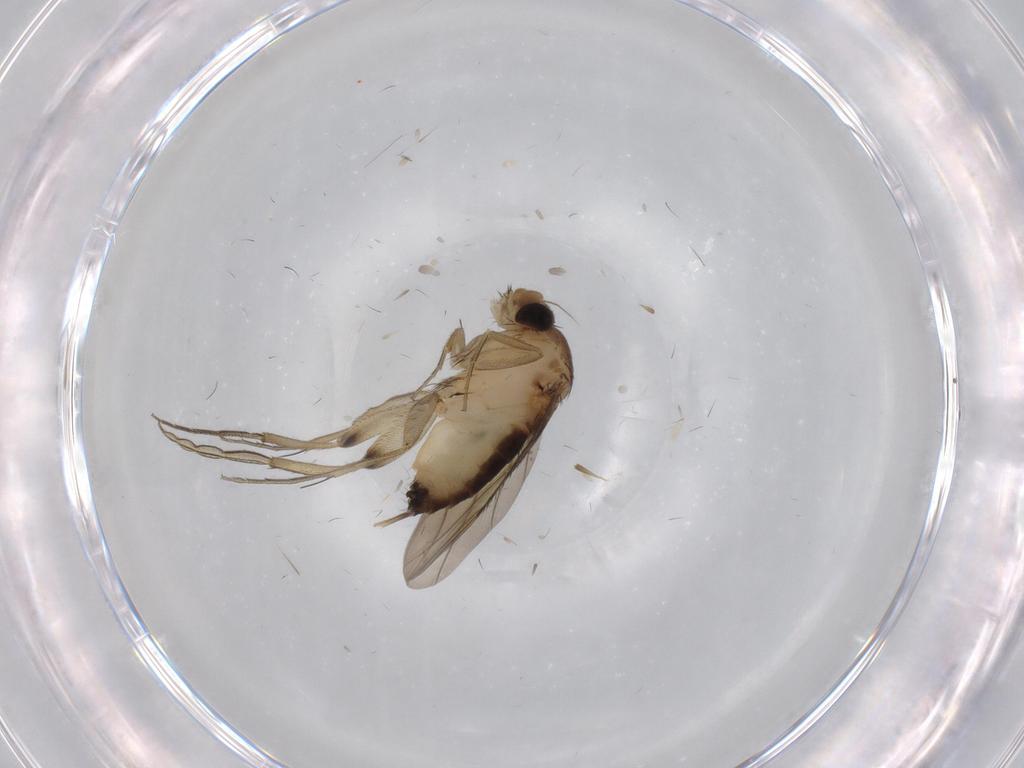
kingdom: Animalia
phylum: Arthropoda
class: Insecta
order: Diptera
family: Phoridae
